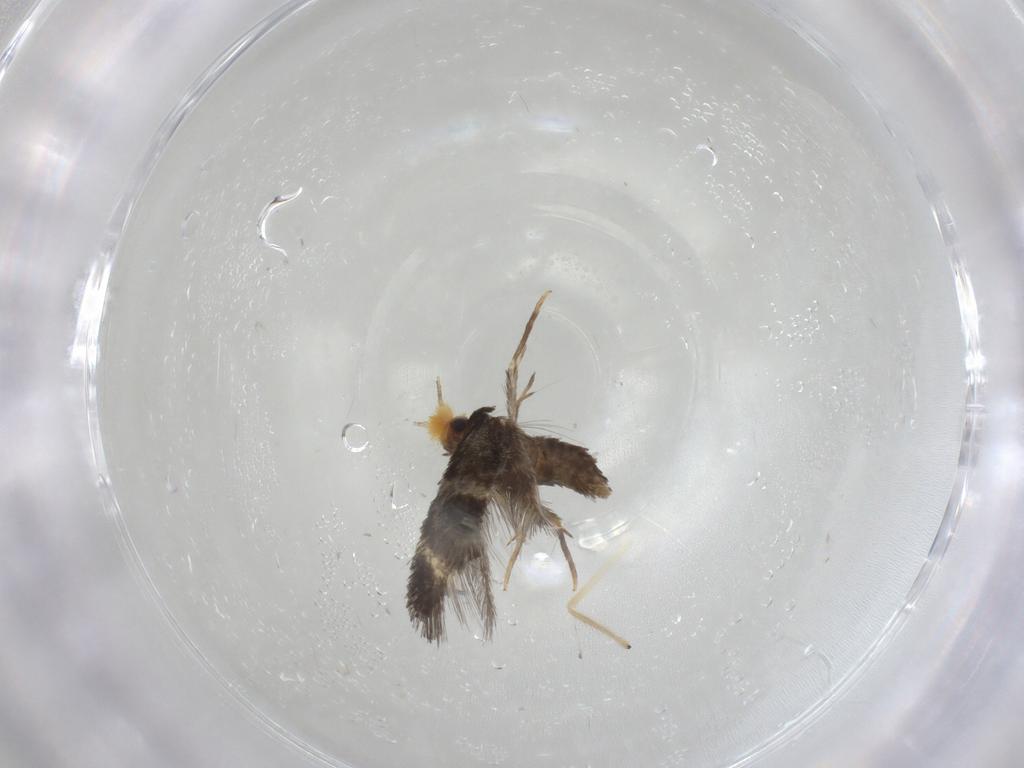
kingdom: Animalia
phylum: Arthropoda
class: Insecta
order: Lepidoptera
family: Nepticulidae
